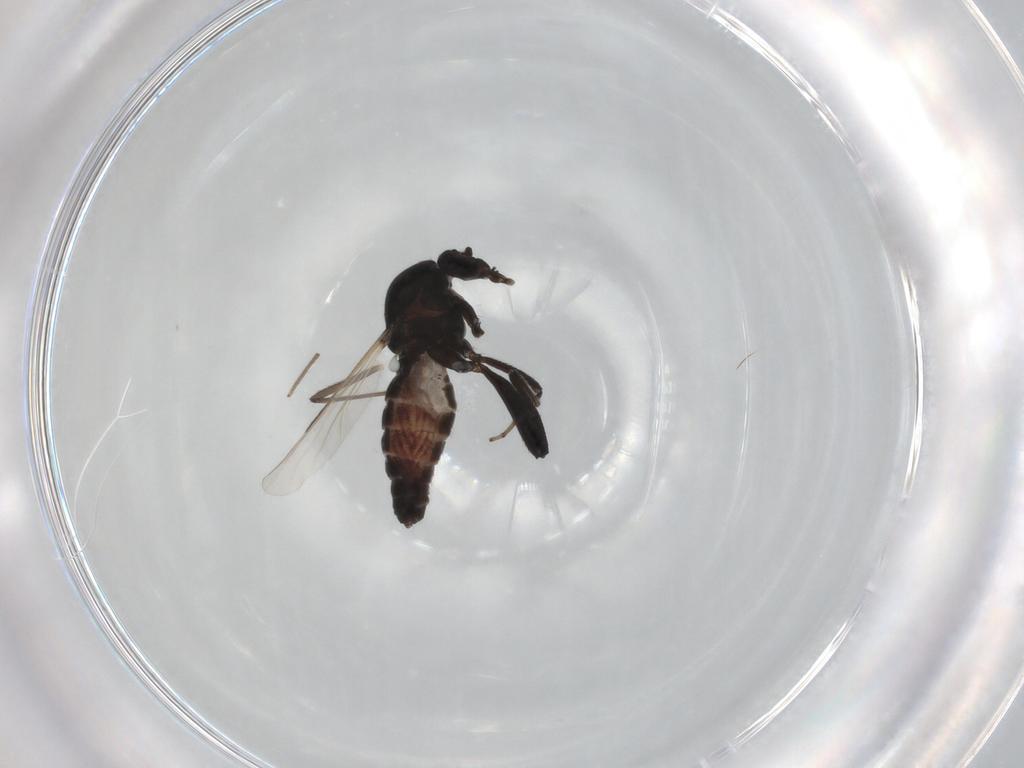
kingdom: Animalia
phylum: Arthropoda
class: Insecta
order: Diptera
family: Ceratopogonidae
